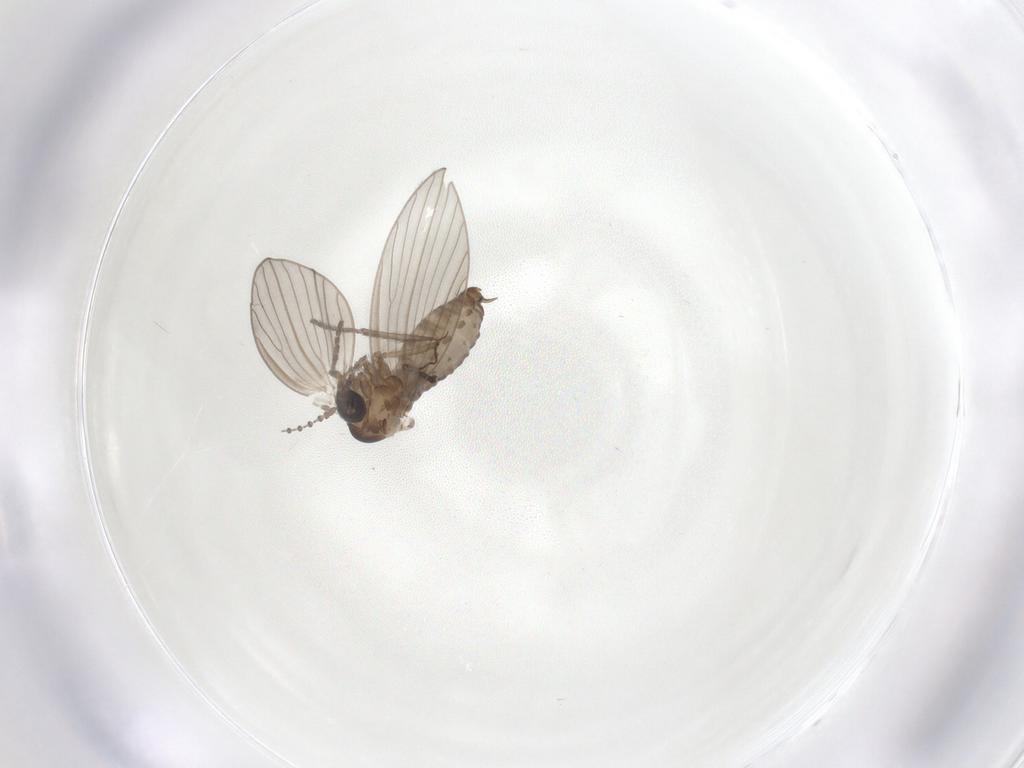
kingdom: Animalia
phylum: Arthropoda
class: Insecta
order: Diptera
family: Psychodidae
